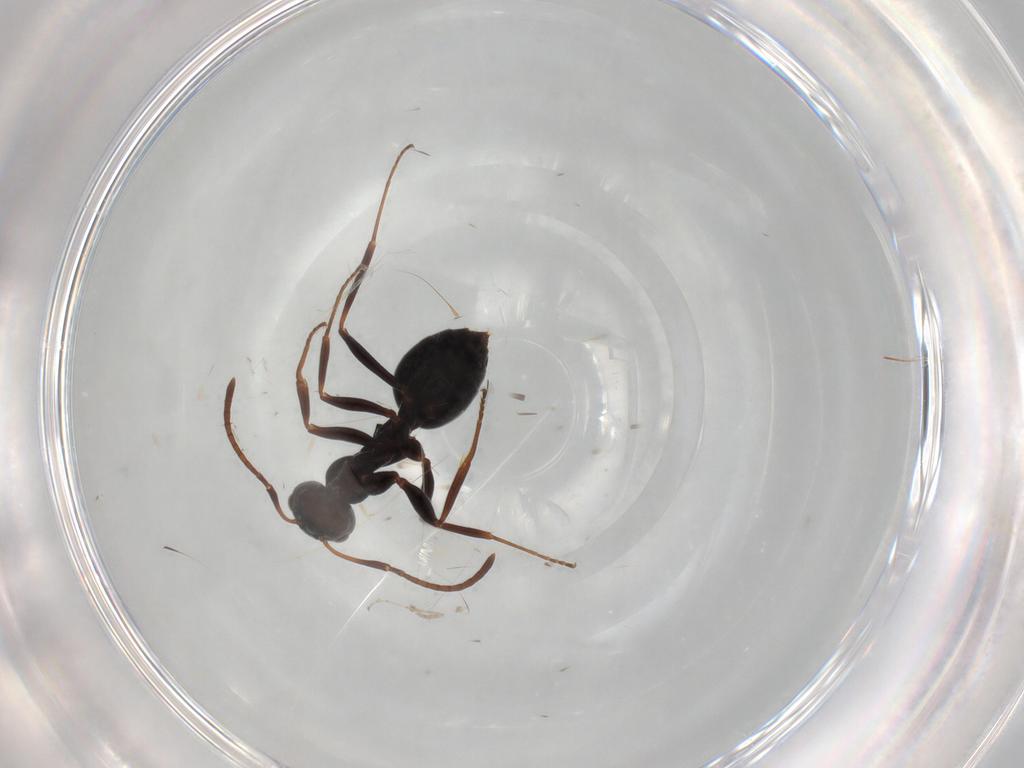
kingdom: Animalia
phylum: Arthropoda
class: Insecta
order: Hymenoptera
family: Formicidae
